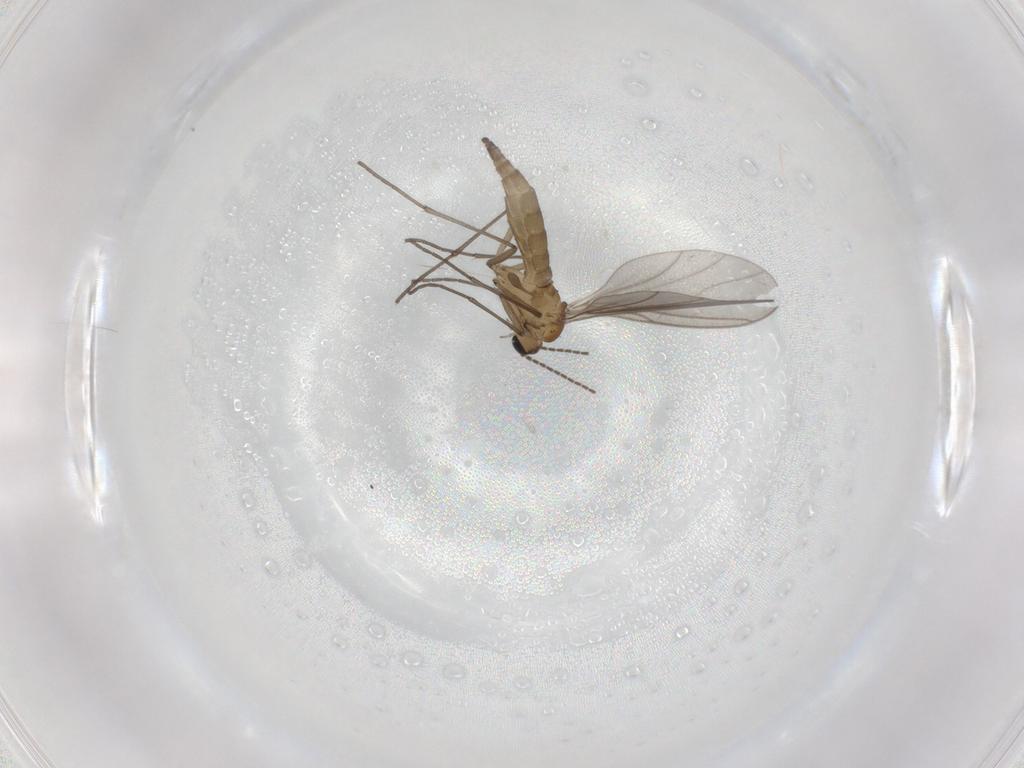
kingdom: Animalia
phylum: Arthropoda
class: Insecta
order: Diptera
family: Sciaridae
